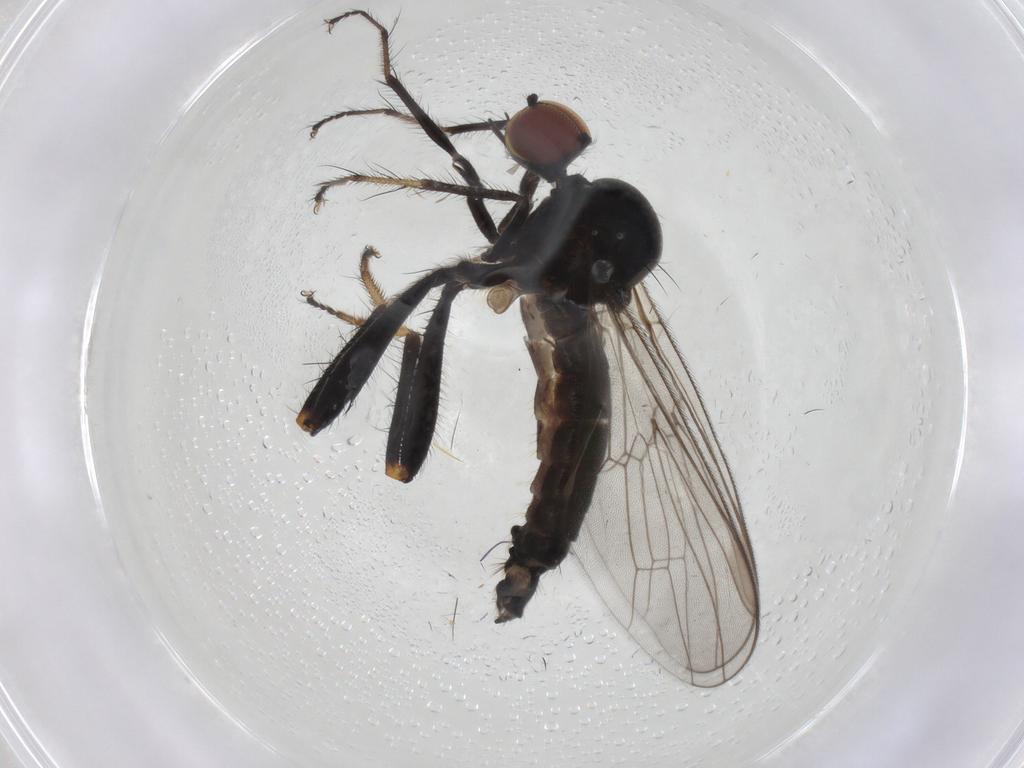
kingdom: Animalia
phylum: Arthropoda
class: Insecta
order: Diptera
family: Hybotidae
